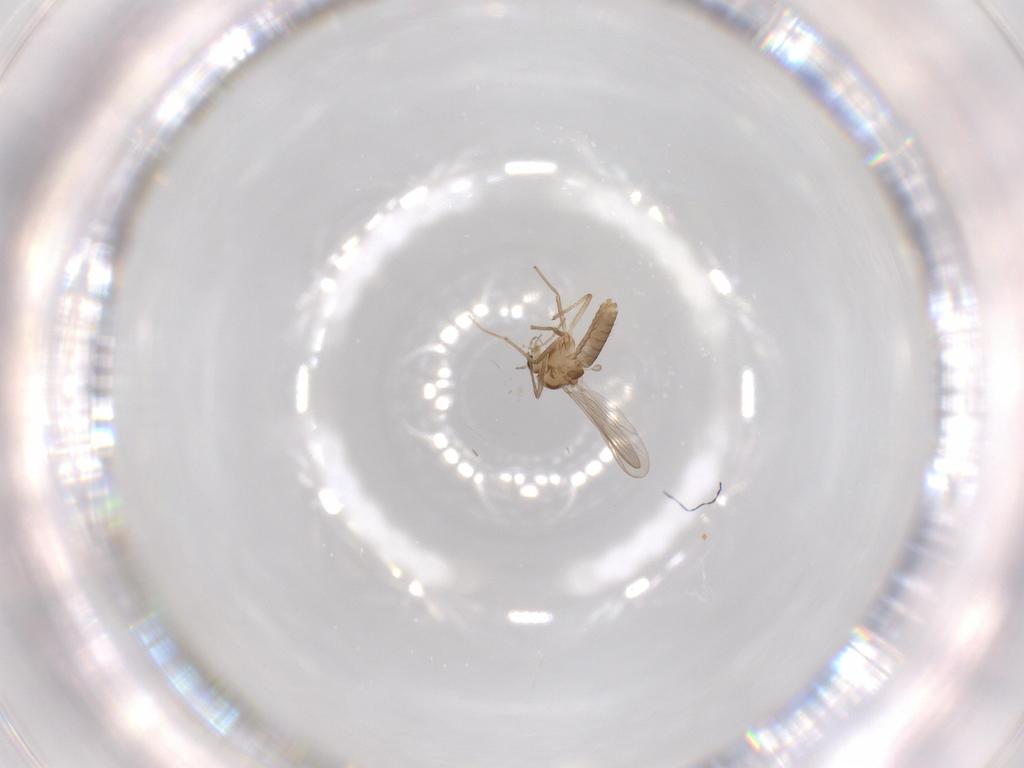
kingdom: Animalia
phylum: Arthropoda
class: Insecta
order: Diptera
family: Chironomidae
